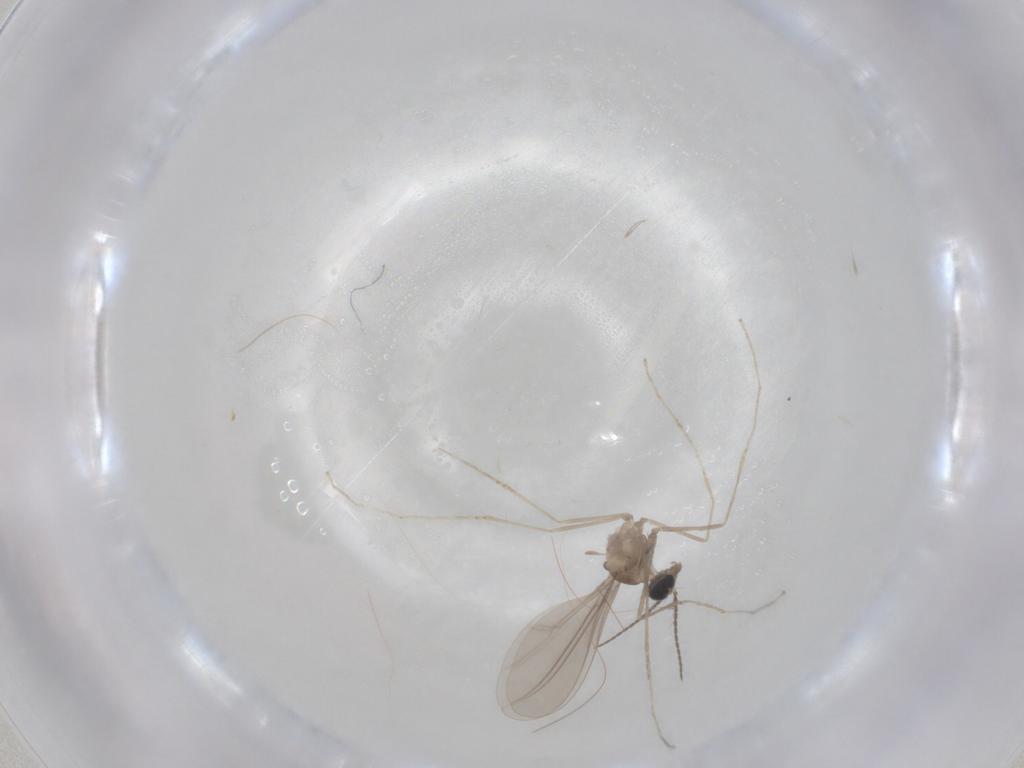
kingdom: Animalia
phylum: Arthropoda
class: Insecta
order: Diptera
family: Cecidomyiidae
